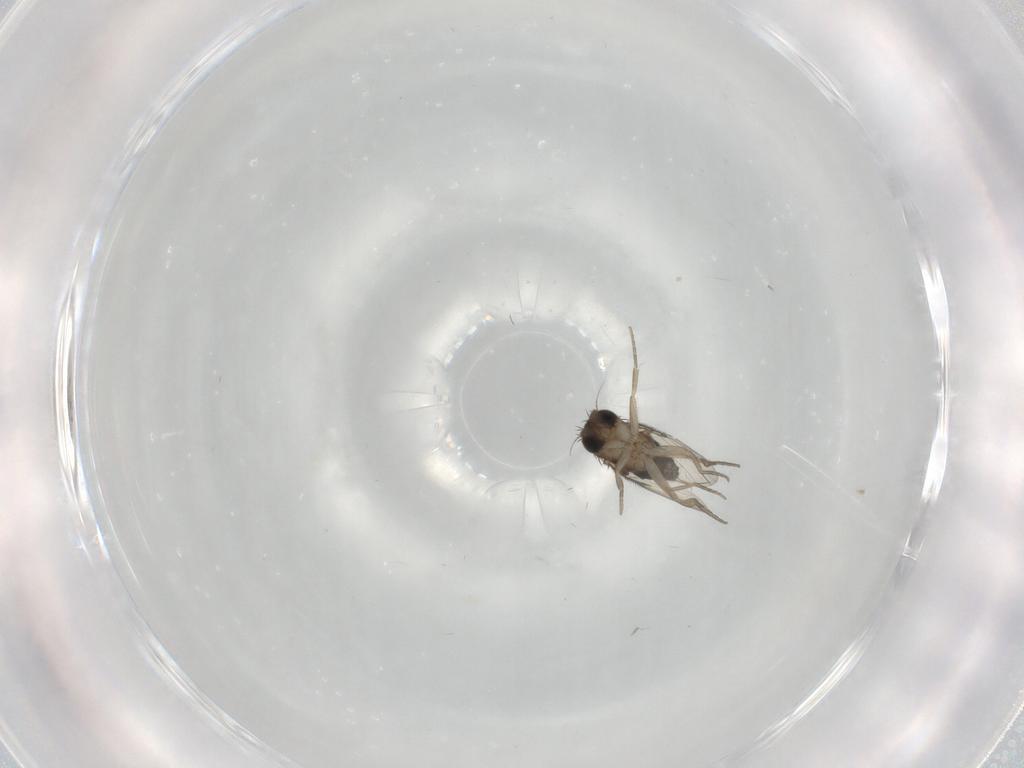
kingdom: Animalia
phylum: Arthropoda
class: Insecta
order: Diptera
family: Phoridae
